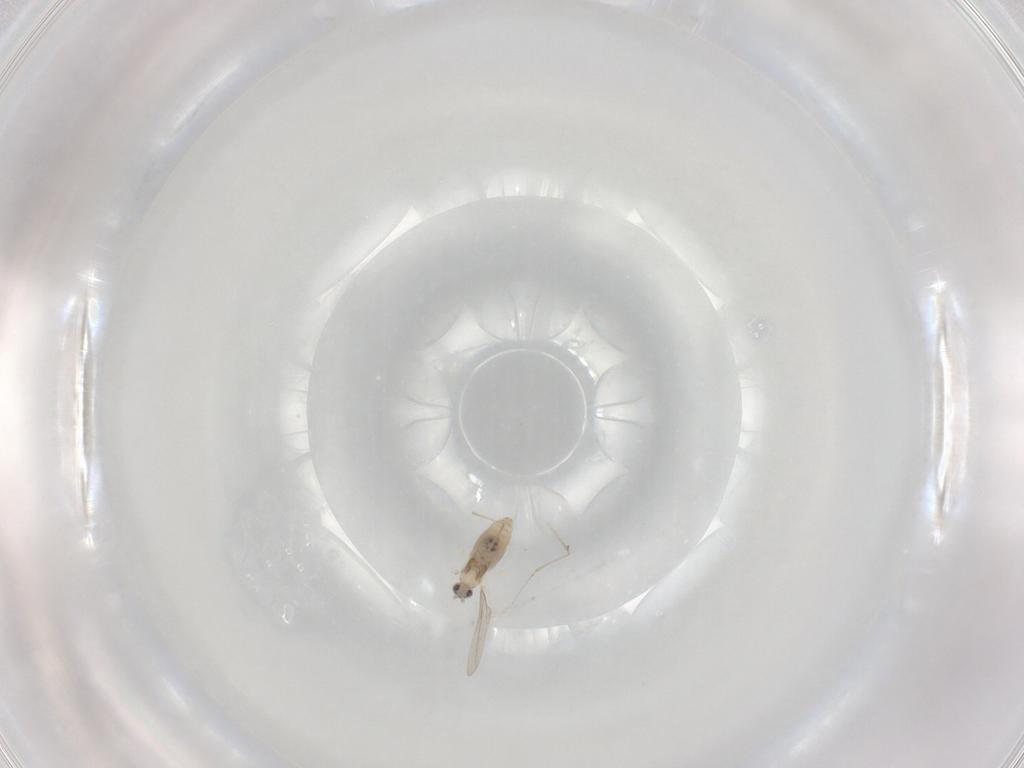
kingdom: Animalia
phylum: Arthropoda
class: Insecta
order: Diptera
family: Cecidomyiidae
